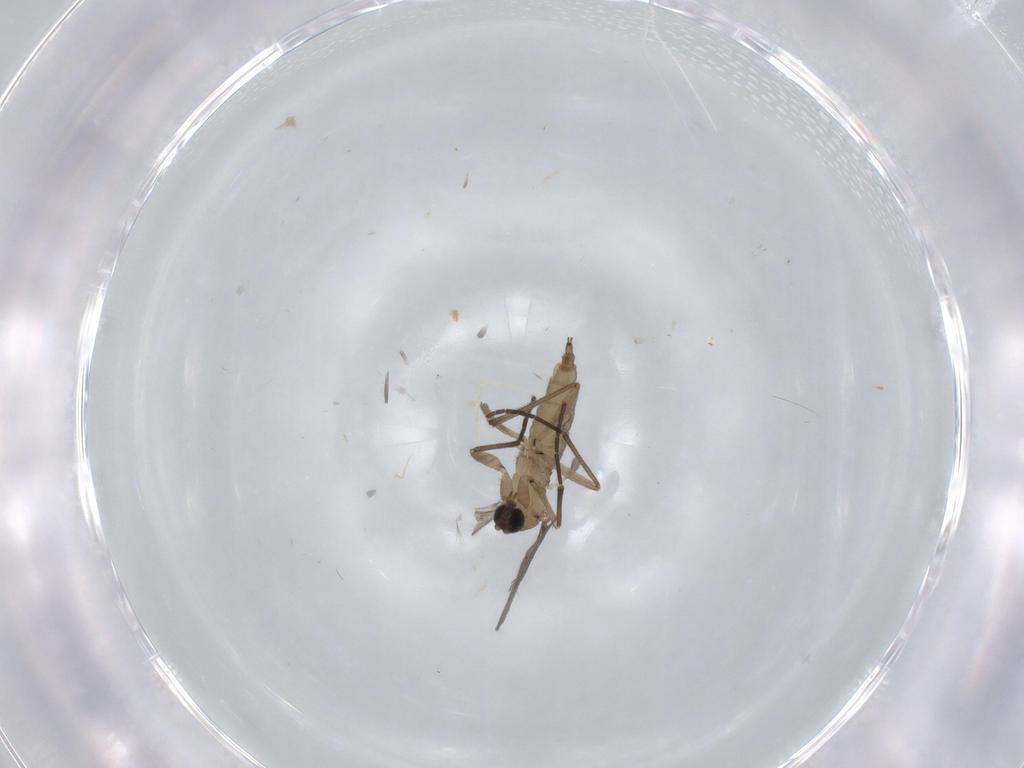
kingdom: Animalia
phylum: Arthropoda
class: Insecta
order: Diptera
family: Sciaridae
